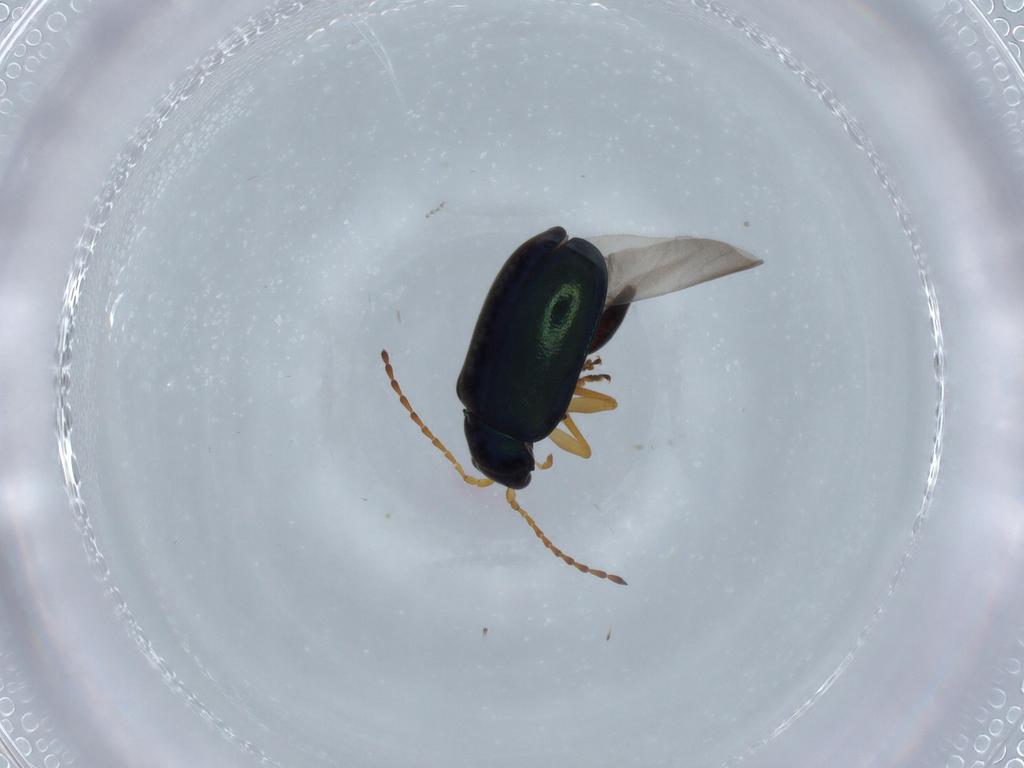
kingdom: Animalia
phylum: Arthropoda
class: Insecta
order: Coleoptera
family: Chrysomelidae
